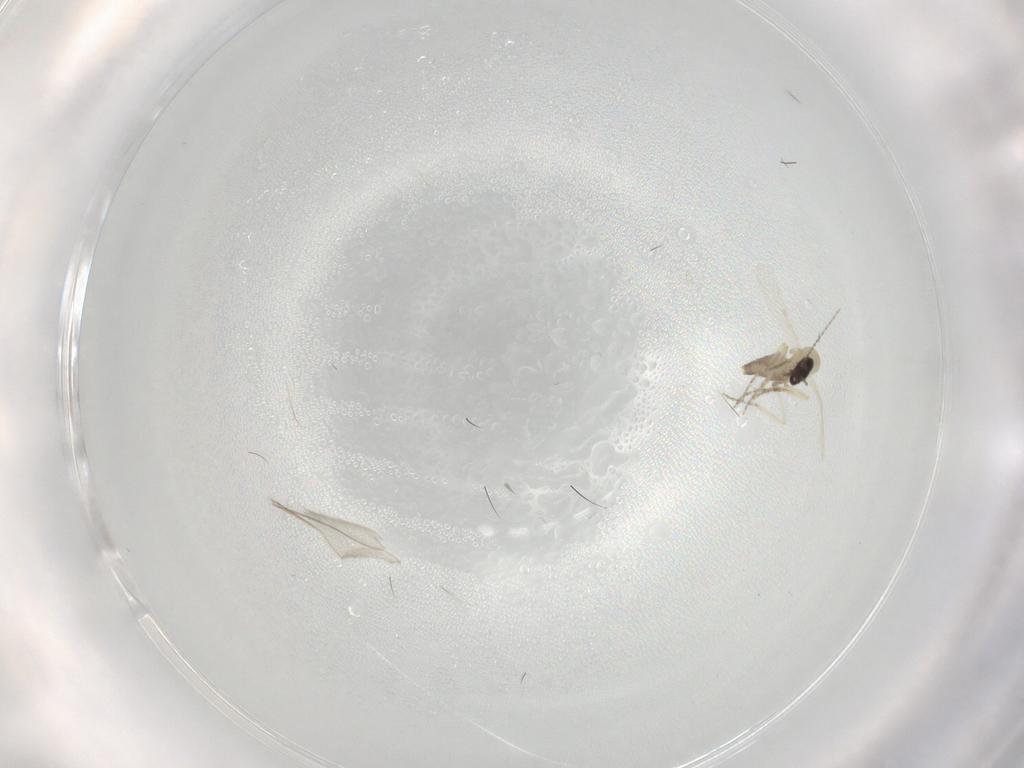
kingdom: Animalia
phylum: Arthropoda
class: Insecta
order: Diptera
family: Ceratopogonidae
